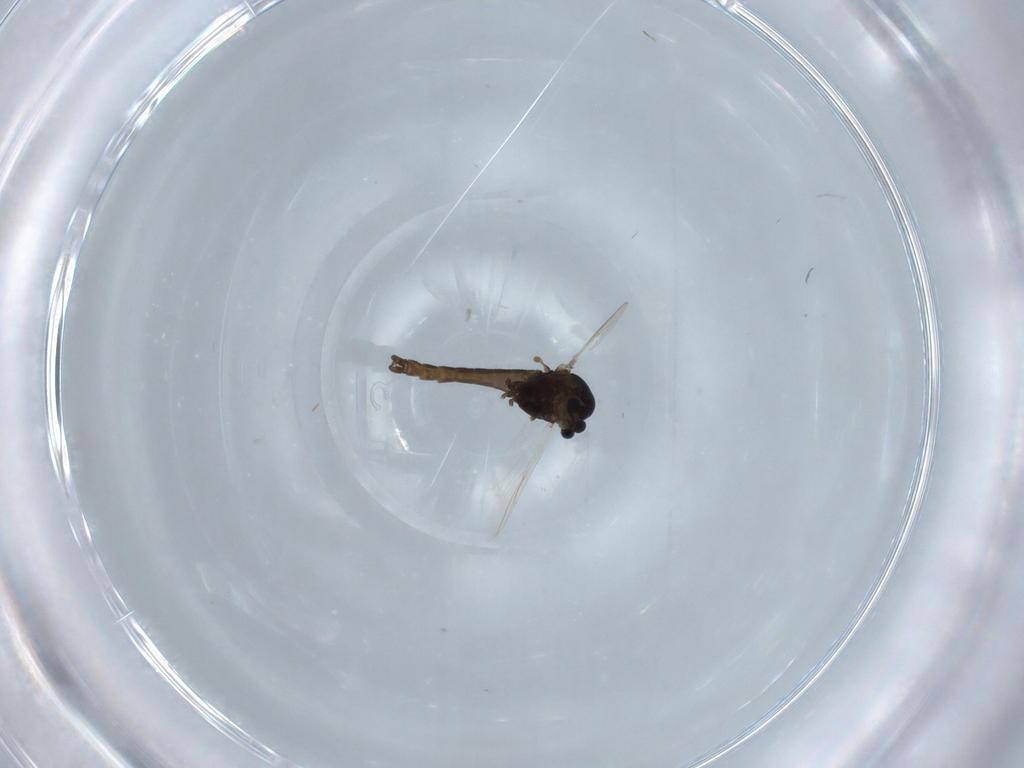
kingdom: Animalia
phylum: Arthropoda
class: Insecta
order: Diptera
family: Chironomidae
